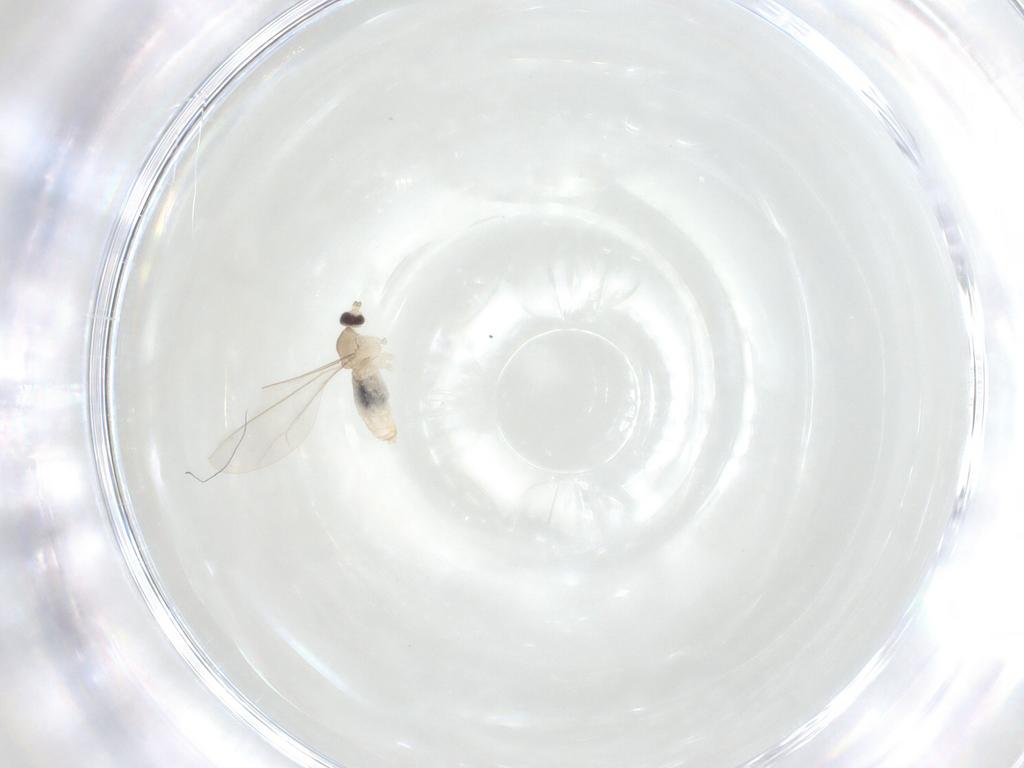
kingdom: Animalia
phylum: Arthropoda
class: Insecta
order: Diptera
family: Cecidomyiidae
